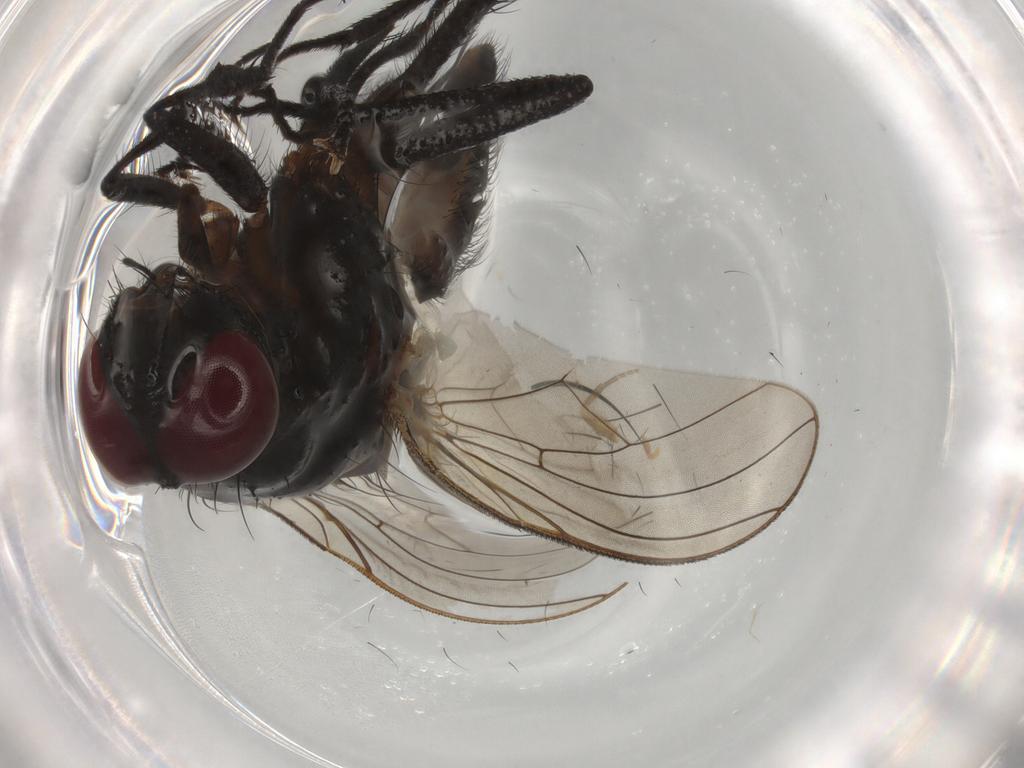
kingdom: Animalia
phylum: Arthropoda
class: Insecta
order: Diptera
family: Anthomyiidae
